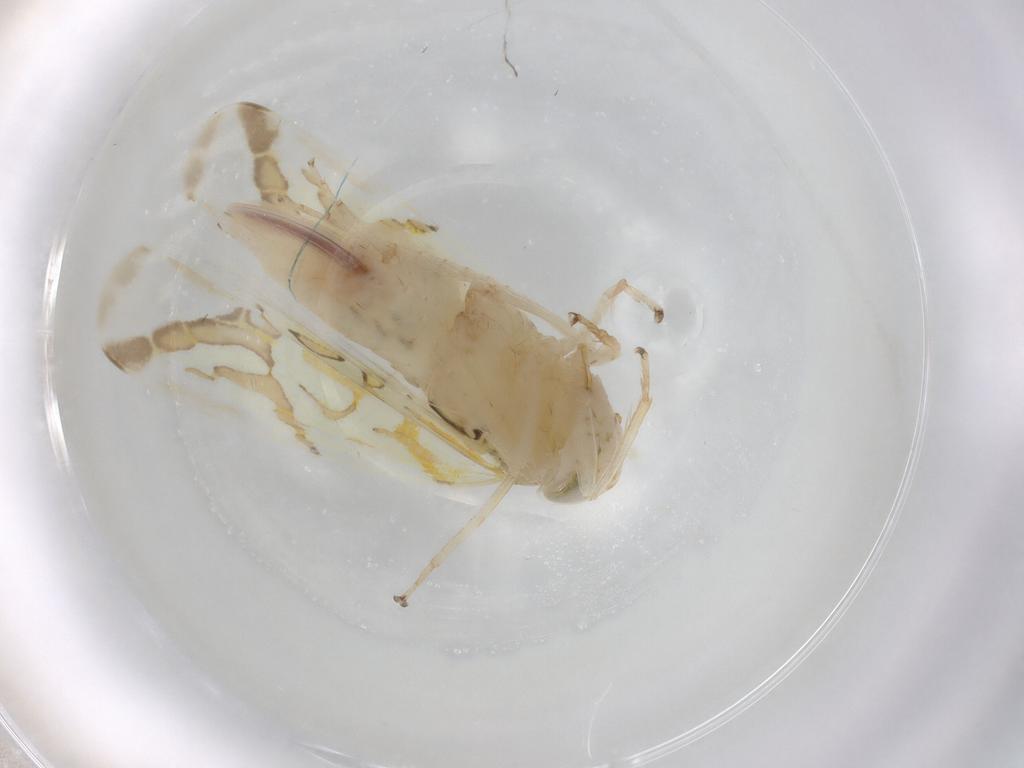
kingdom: Animalia
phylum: Arthropoda
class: Insecta
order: Hemiptera
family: Cicadellidae
